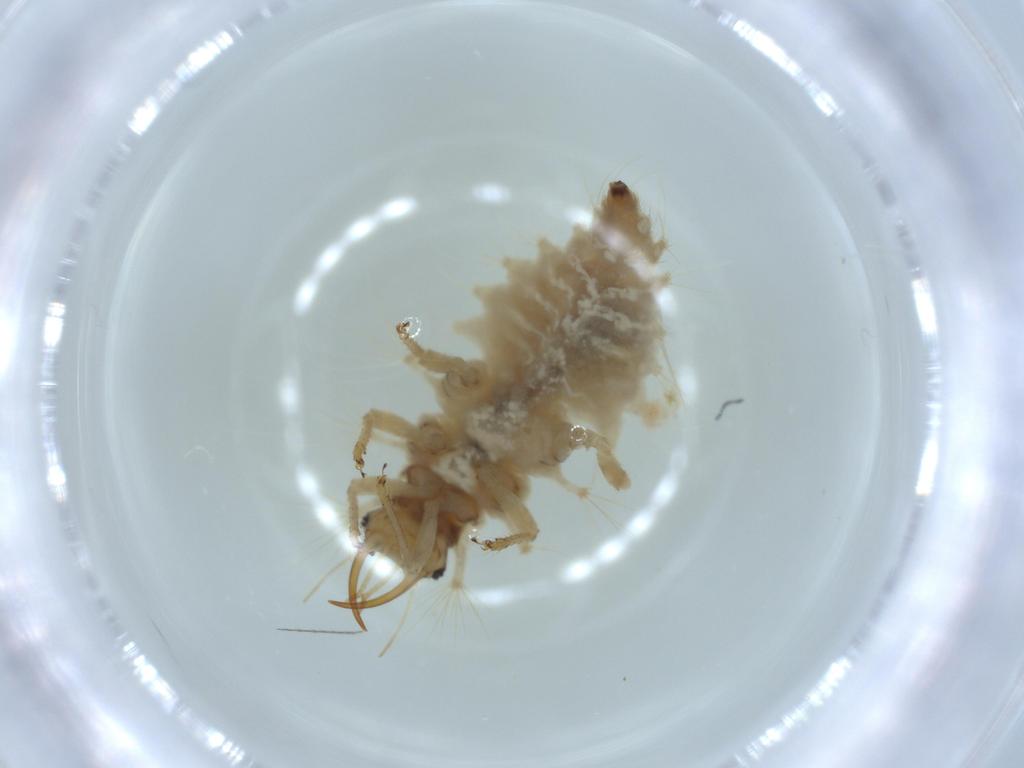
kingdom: Animalia
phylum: Arthropoda
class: Insecta
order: Neuroptera
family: Chrysopidae
